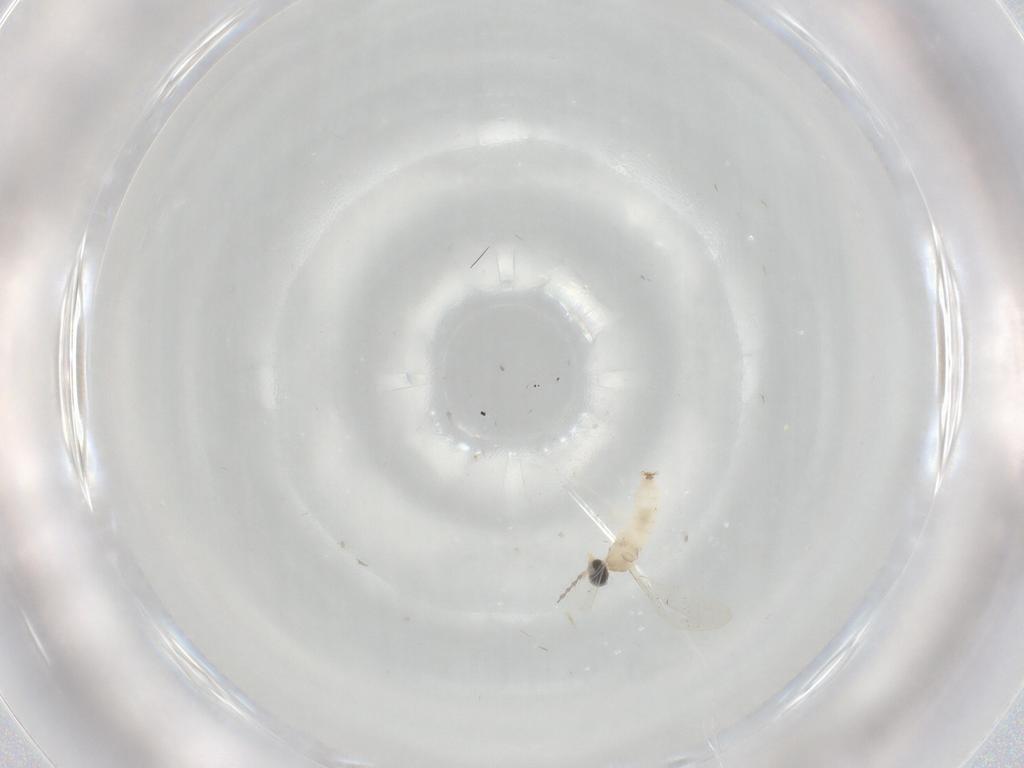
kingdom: Animalia
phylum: Arthropoda
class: Insecta
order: Diptera
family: Cecidomyiidae
